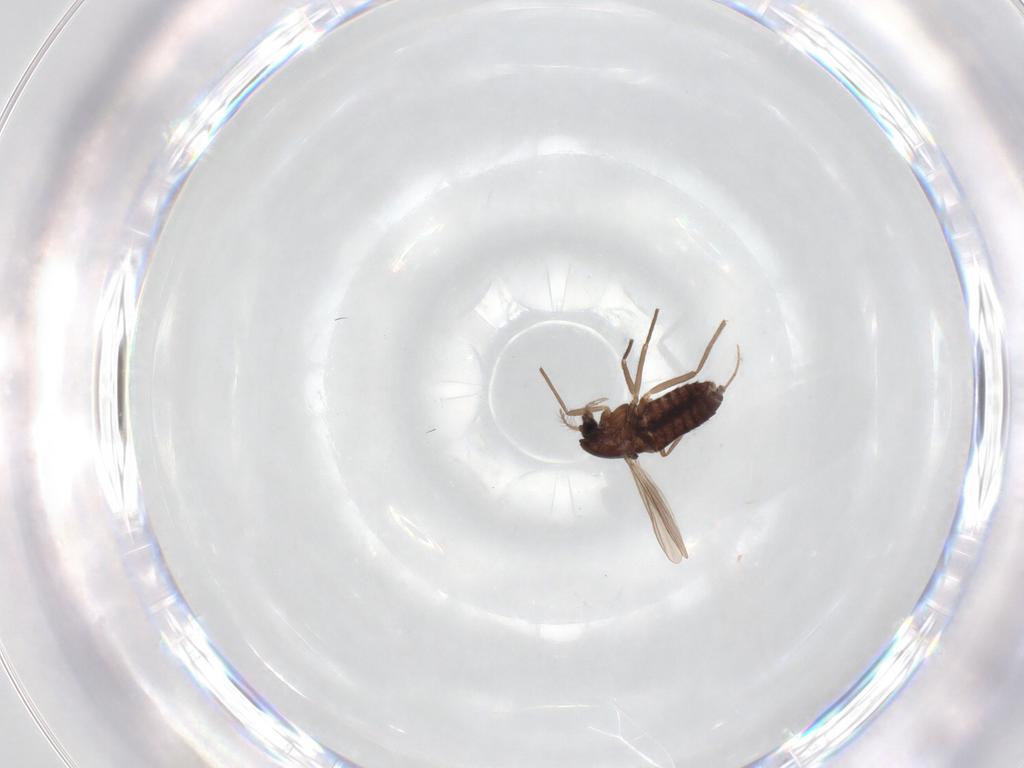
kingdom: Animalia
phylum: Arthropoda
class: Insecta
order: Diptera
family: Chironomidae
